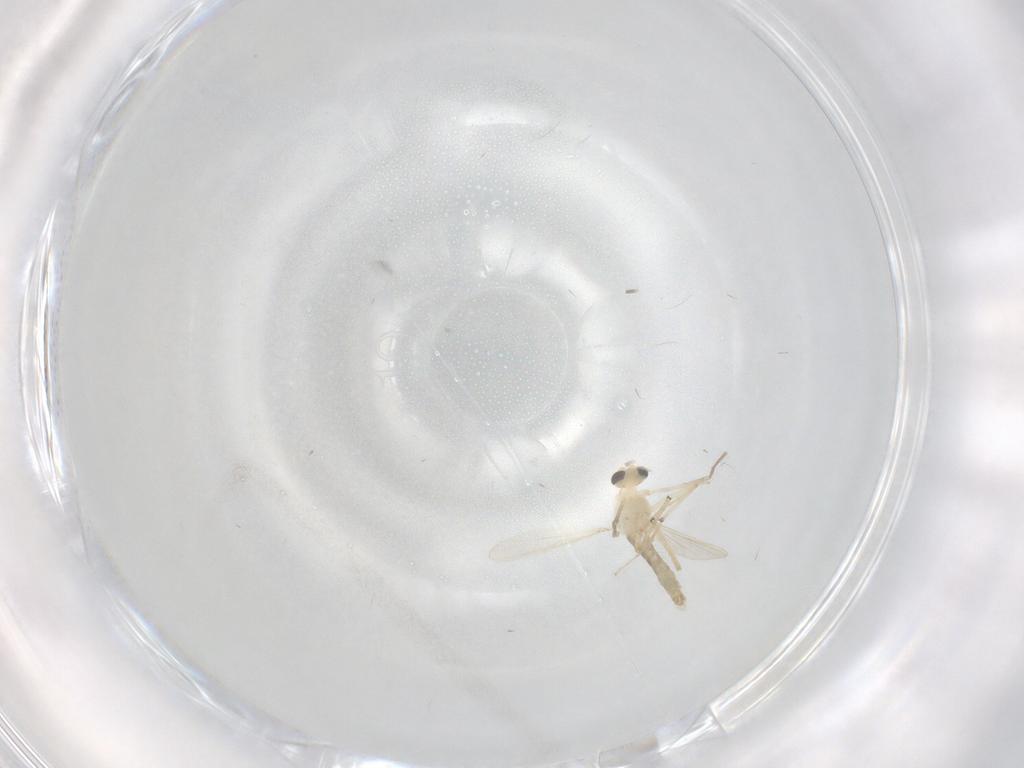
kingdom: Animalia
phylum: Arthropoda
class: Insecta
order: Diptera
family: Chironomidae
